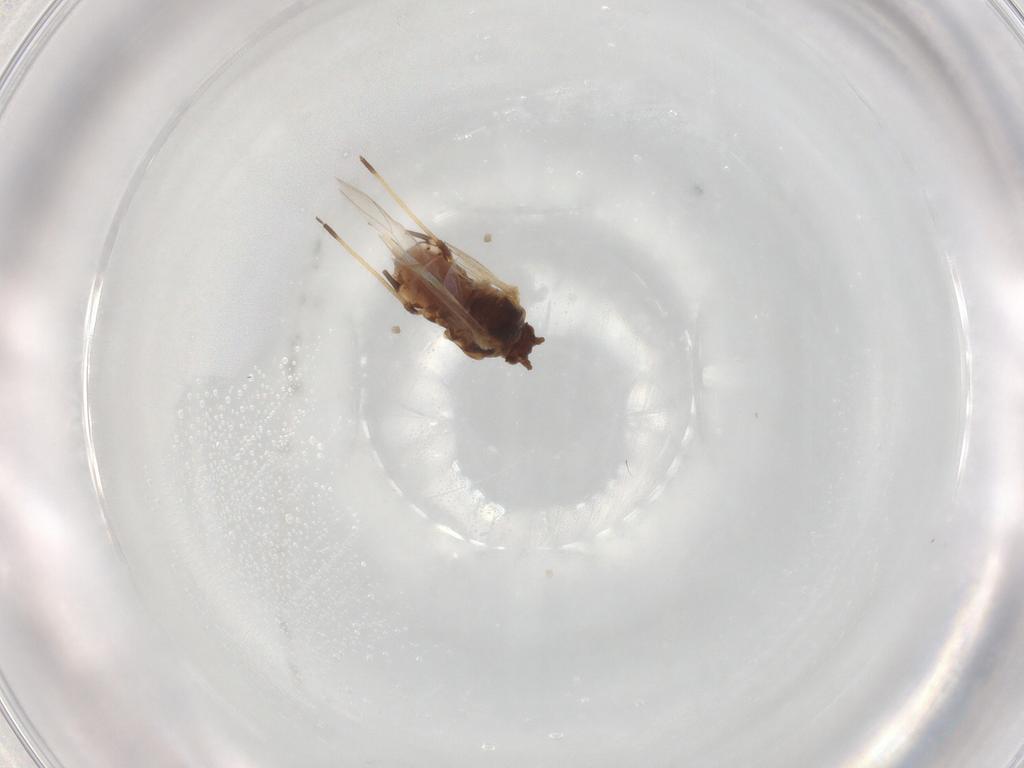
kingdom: Animalia
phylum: Arthropoda
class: Insecta
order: Hemiptera
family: Aphididae
